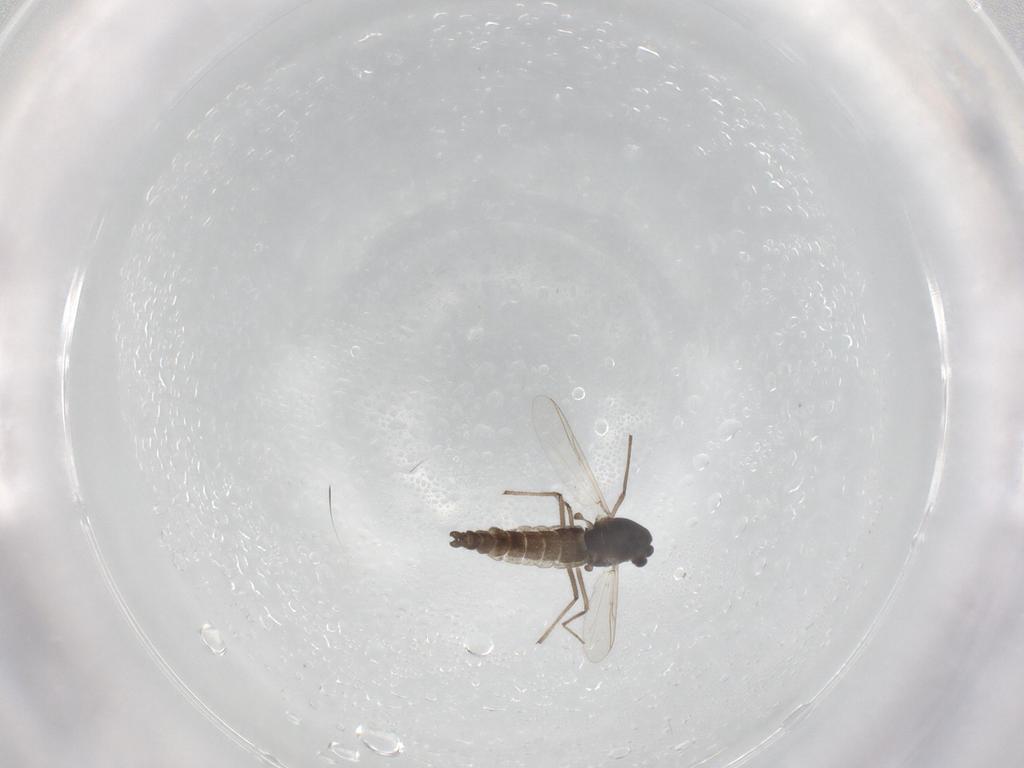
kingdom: Animalia
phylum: Arthropoda
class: Insecta
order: Diptera
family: Chironomidae
